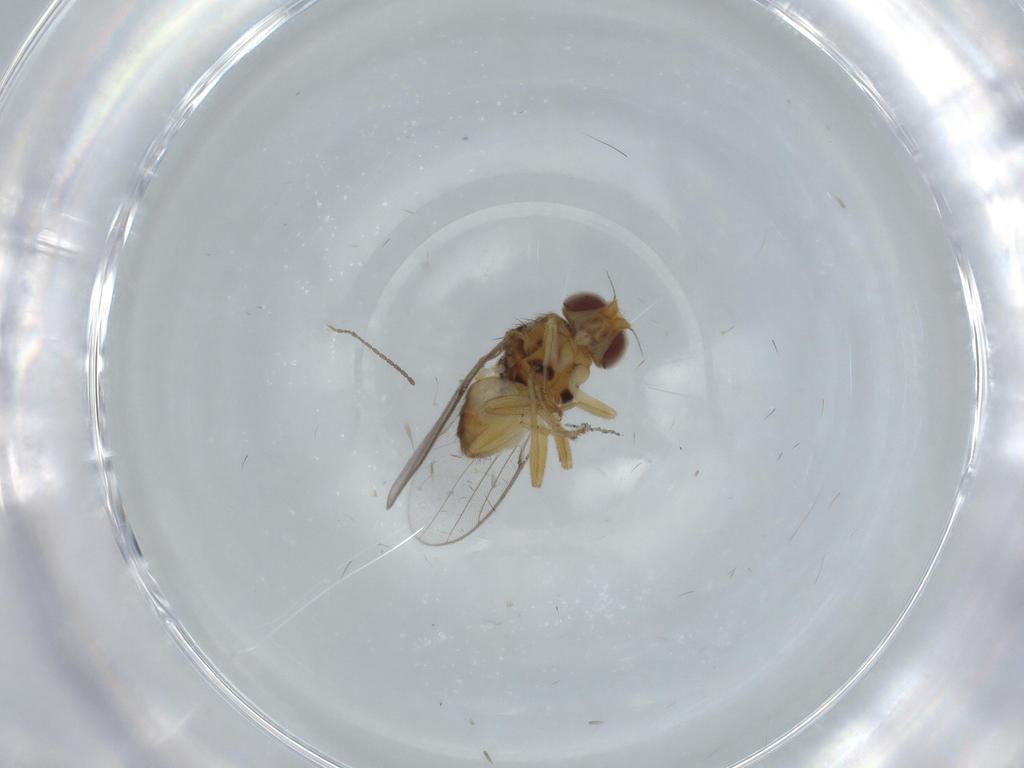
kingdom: Animalia
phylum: Arthropoda
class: Insecta
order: Diptera
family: Chloropidae
